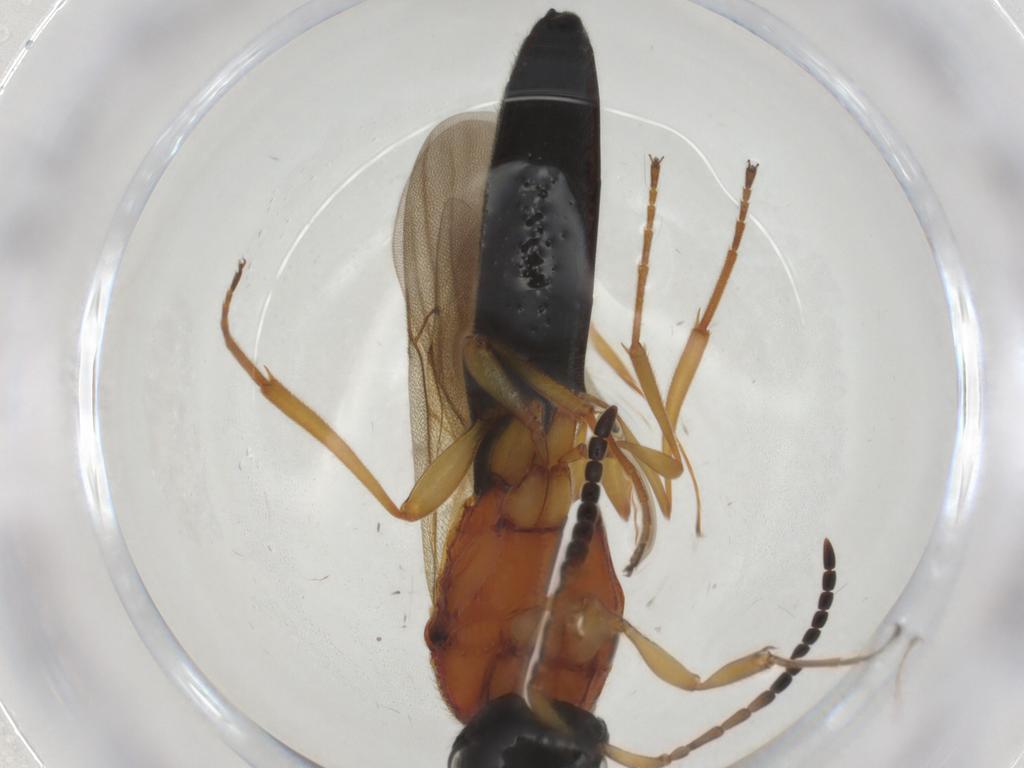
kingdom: Animalia
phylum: Arthropoda
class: Insecta
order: Hymenoptera
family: Scelionidae
